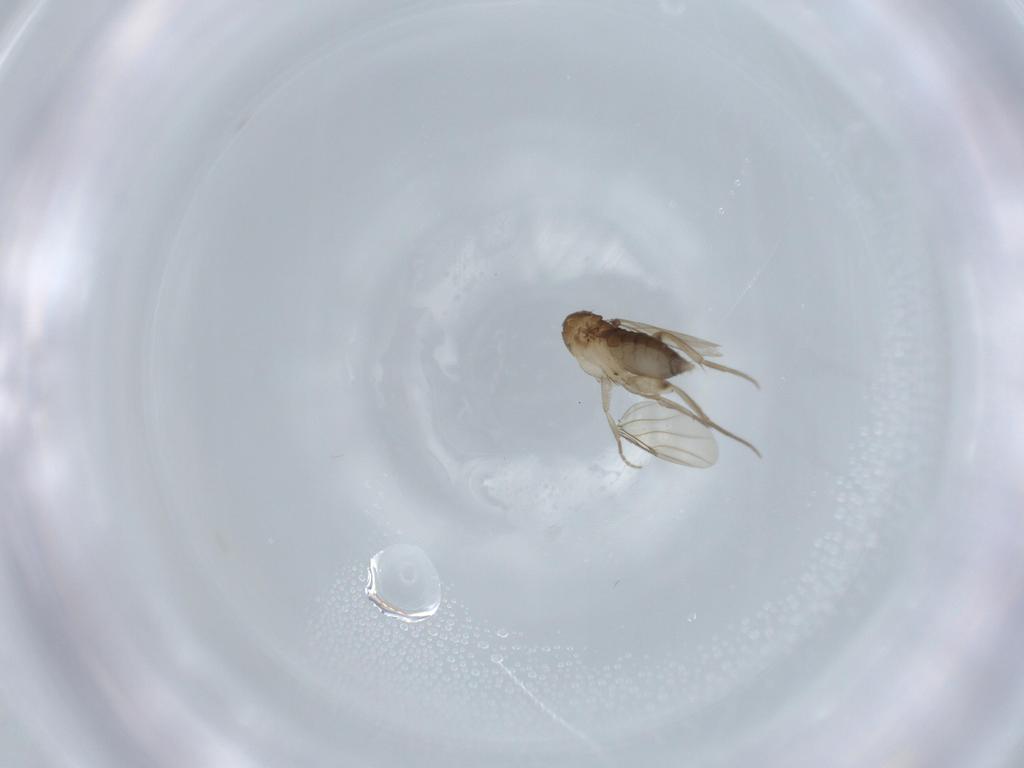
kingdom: Animalia
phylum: Arthropoda
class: Insecta
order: Diptera
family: Phoridae
